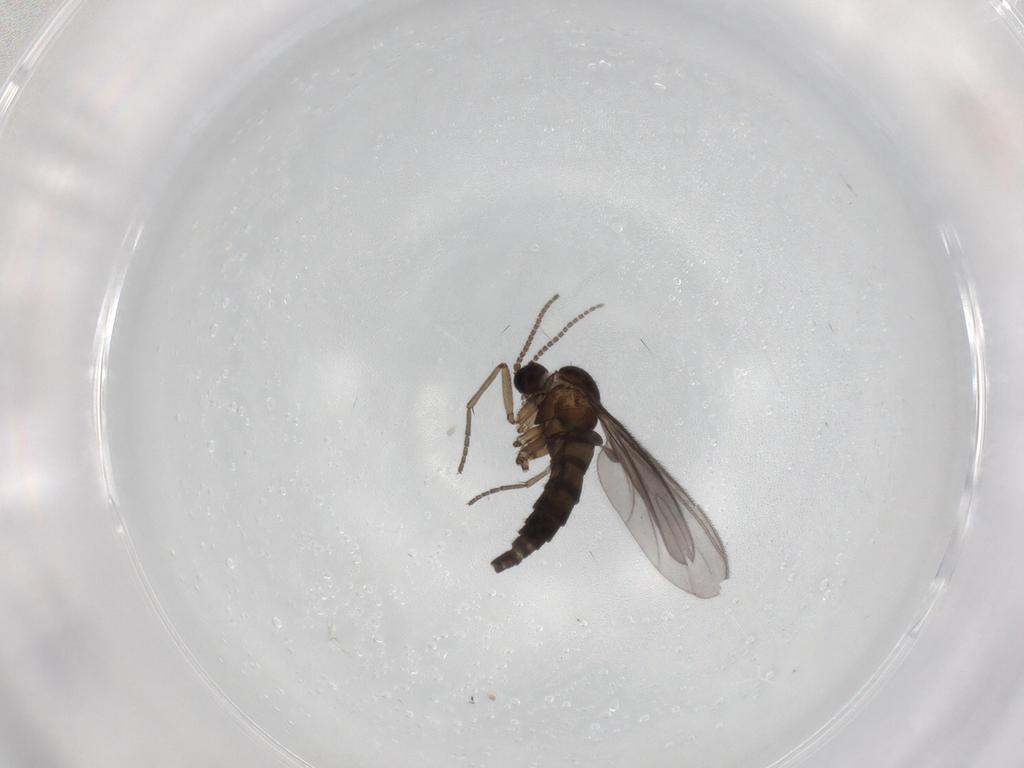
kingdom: Animalia
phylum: Arthropoda
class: Insecta
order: Diptera
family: Sciaridae
